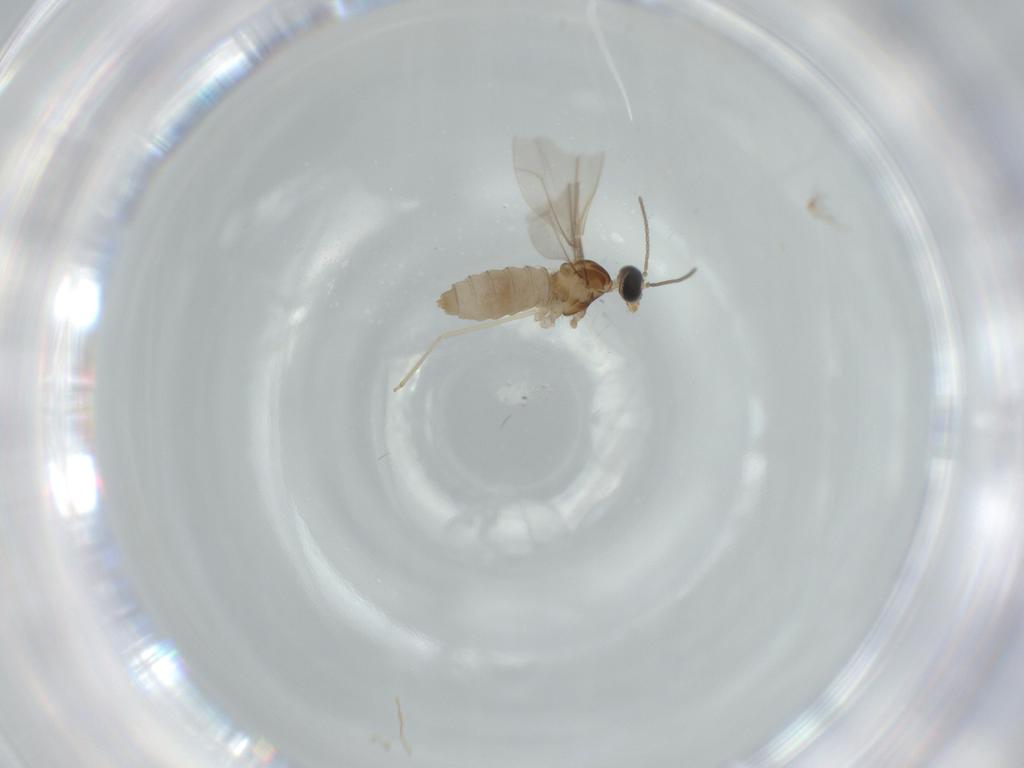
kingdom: Animalia
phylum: Arthropoda
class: Insecta
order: Diptera
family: Cecidomyiidae
